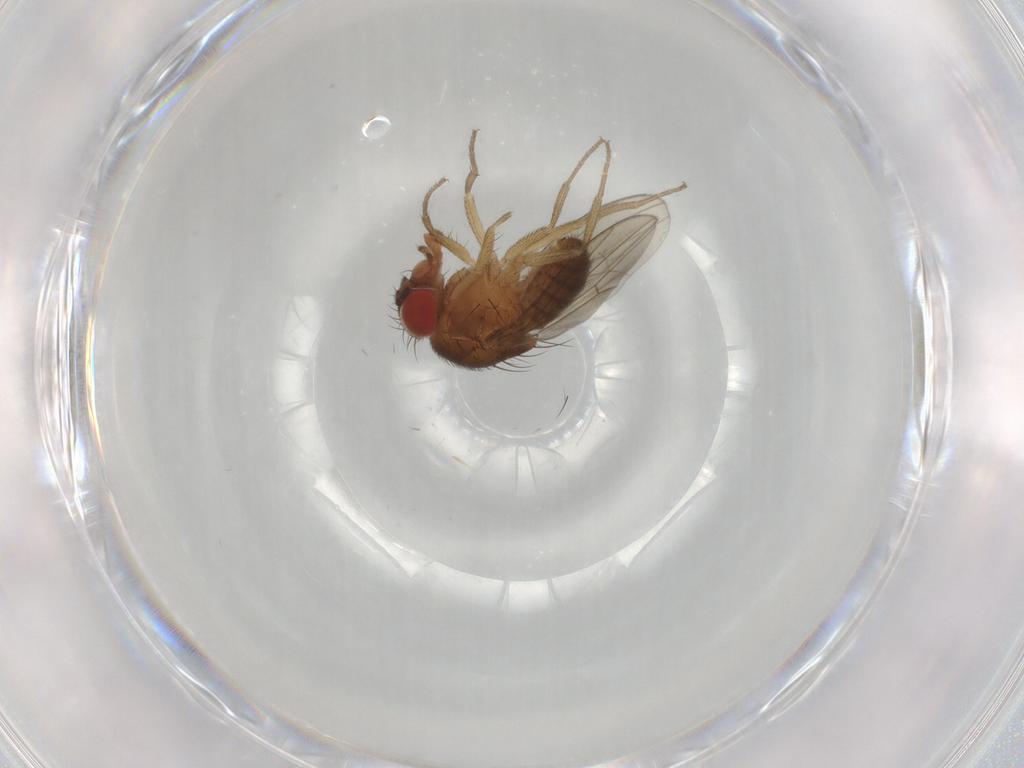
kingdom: Animalia
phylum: Arthropoda
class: Insecta
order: Diptera
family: Drosophilidae
